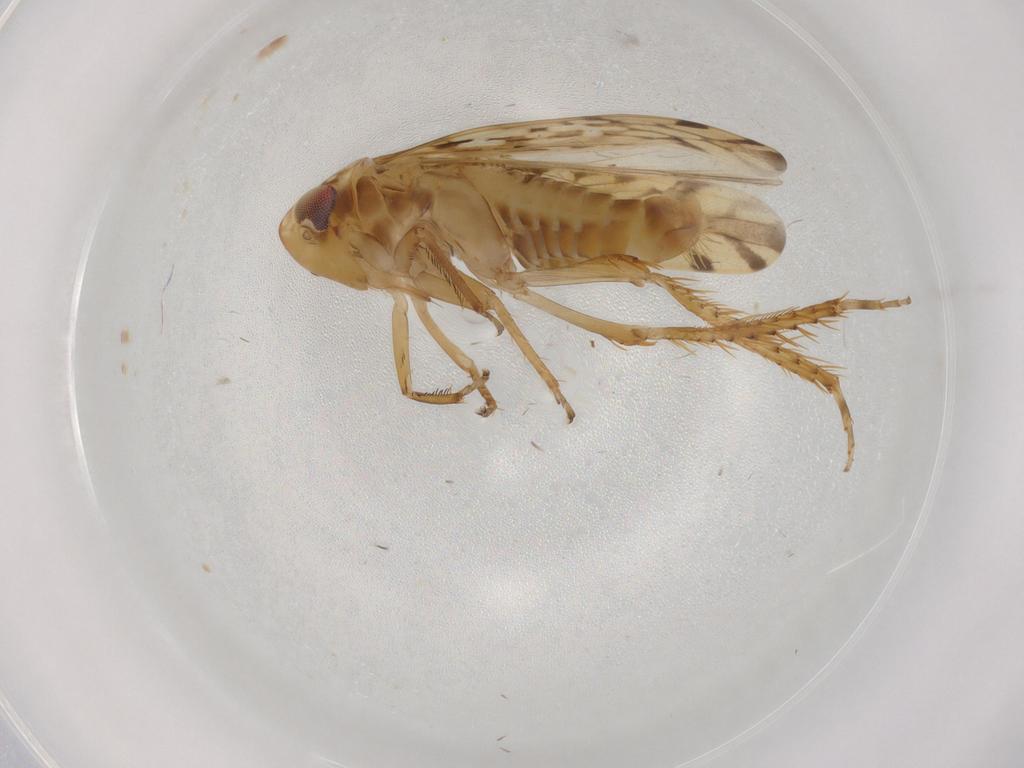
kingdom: Animalia
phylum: Arthropoda
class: Insecta
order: Hemiptera
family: Cicadellidae
